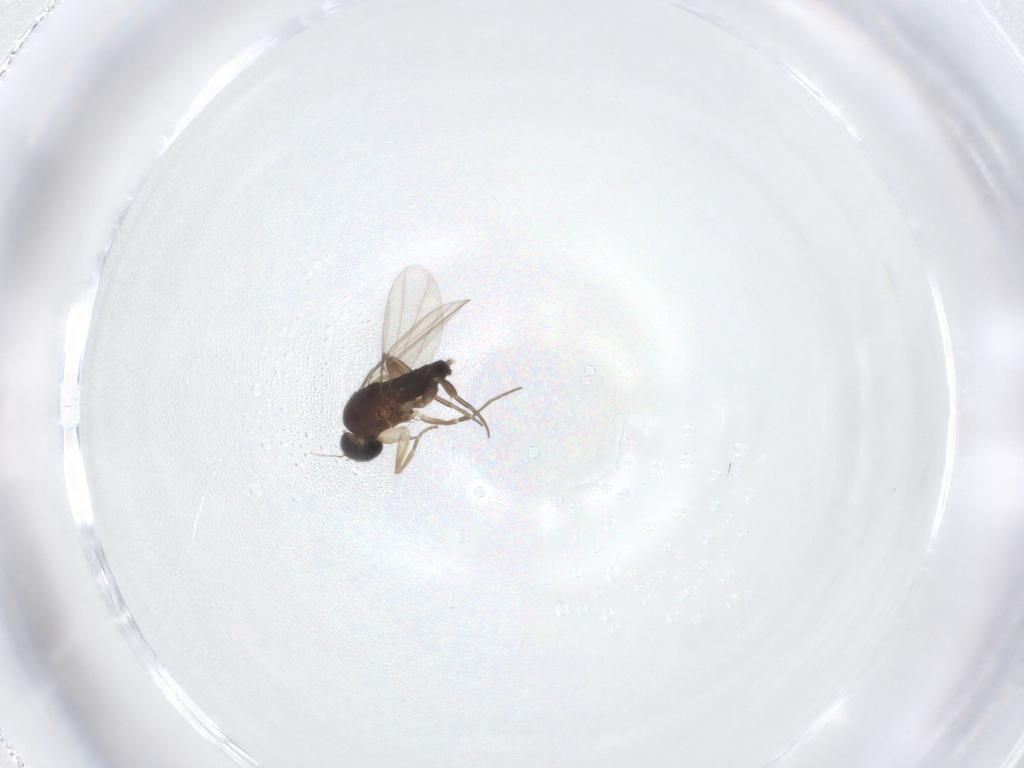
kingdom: Animalia
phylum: Arthropoda
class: Insecta
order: Diptera
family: Phoridae
